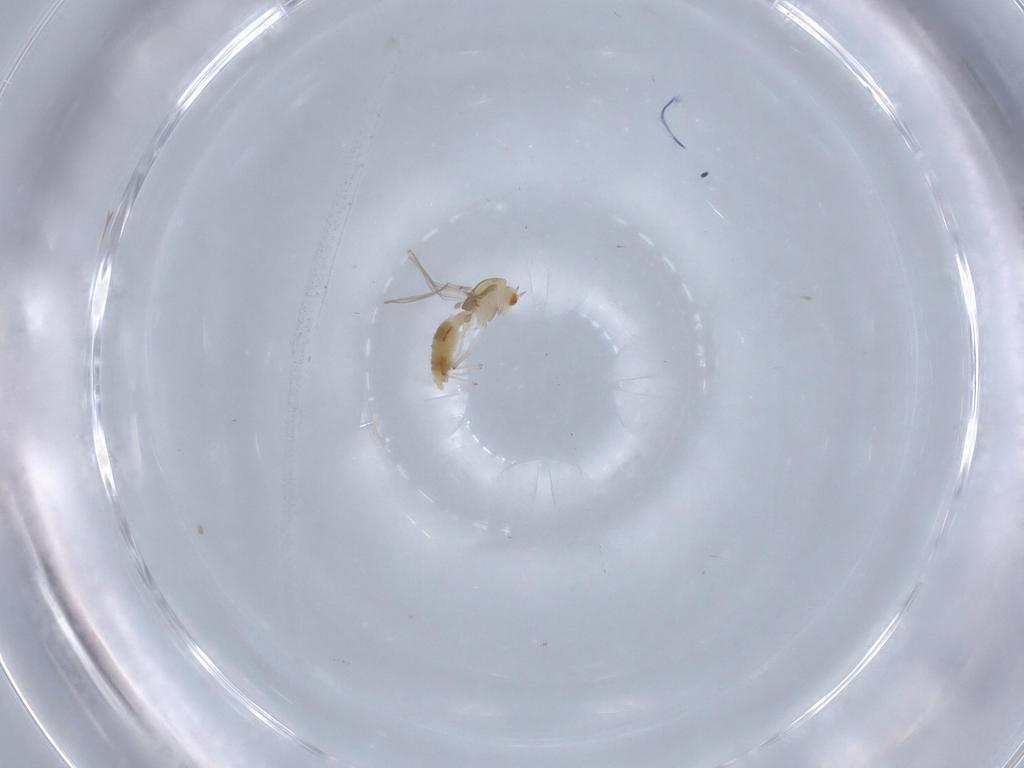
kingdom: Animalia
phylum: Arthropoda
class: Insecta
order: Diptera
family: Chironomidae
